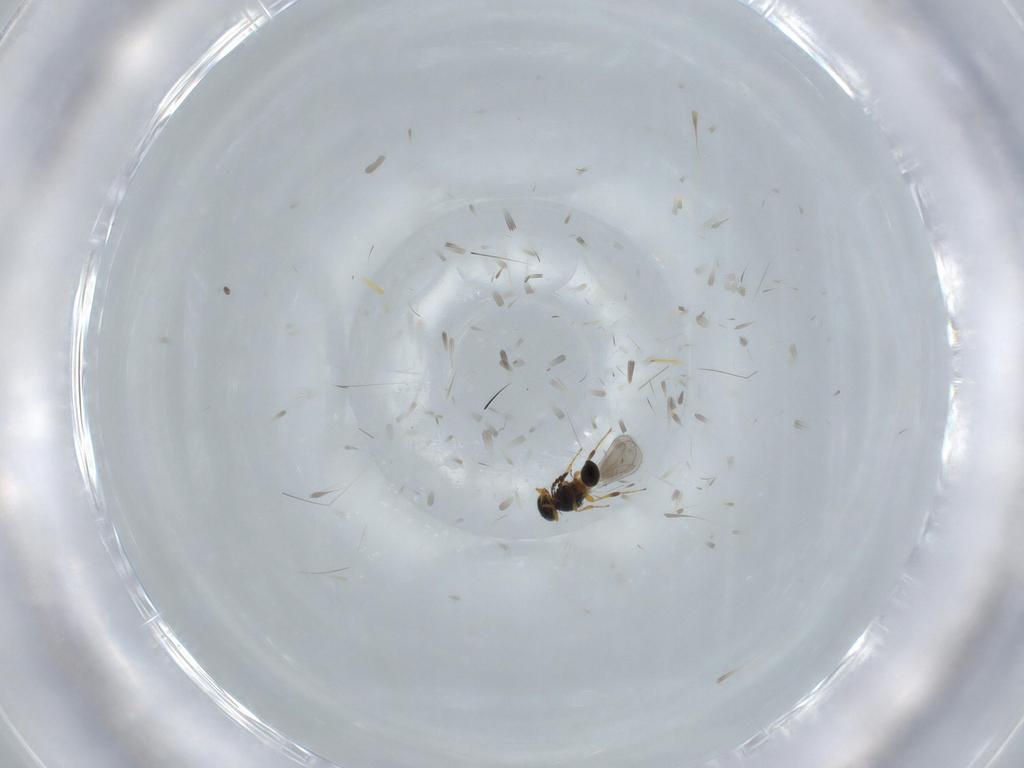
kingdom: Animalia
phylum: Arthropoda
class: Insecta
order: Hymenoptera
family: Platygastridae
